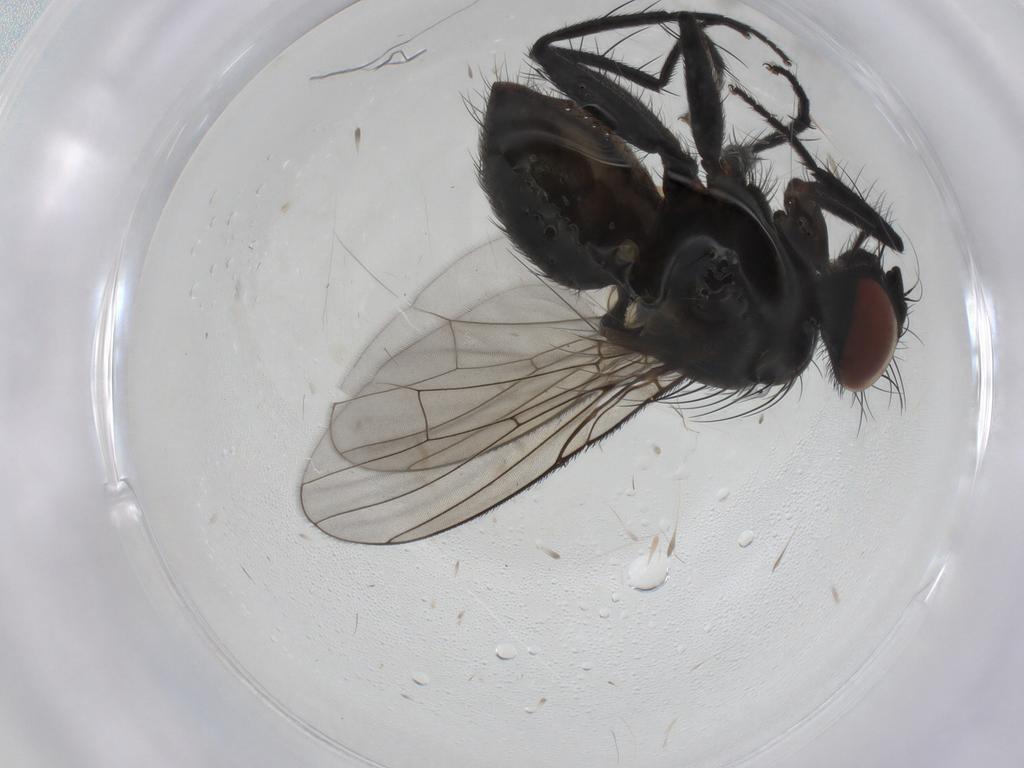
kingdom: Animalia
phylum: Arthropoda
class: Insecta
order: Diptera
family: Muscidae
